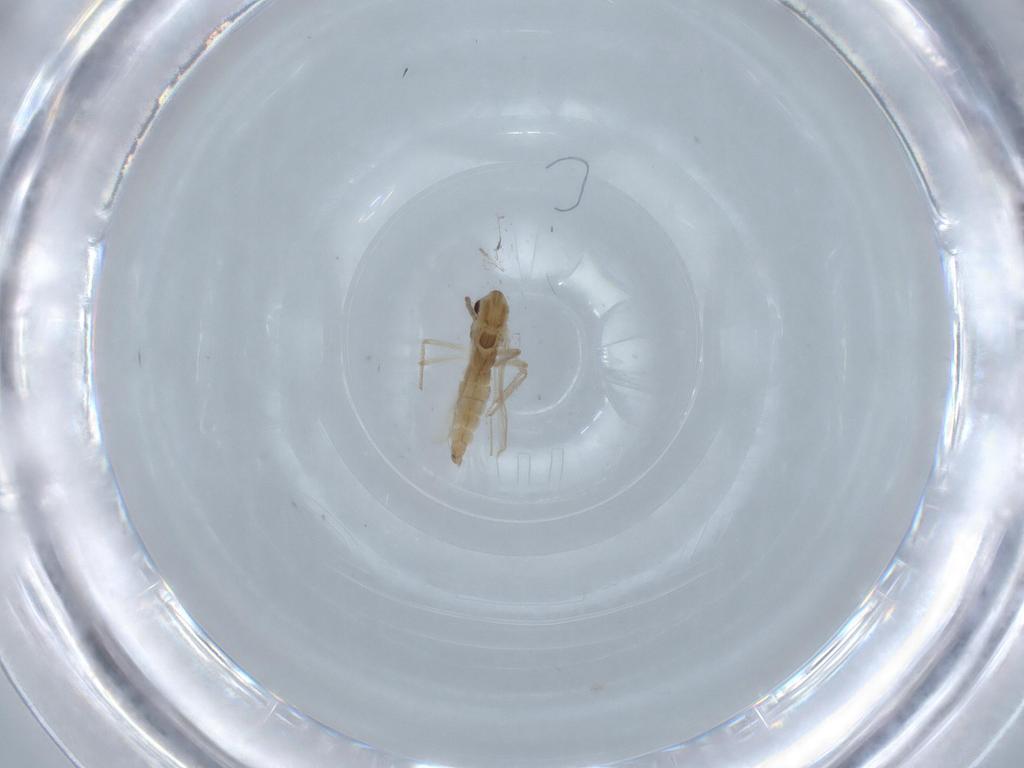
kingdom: Animalia
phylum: Arthropoda
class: Insecta
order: Diptera
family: Chironomidae
